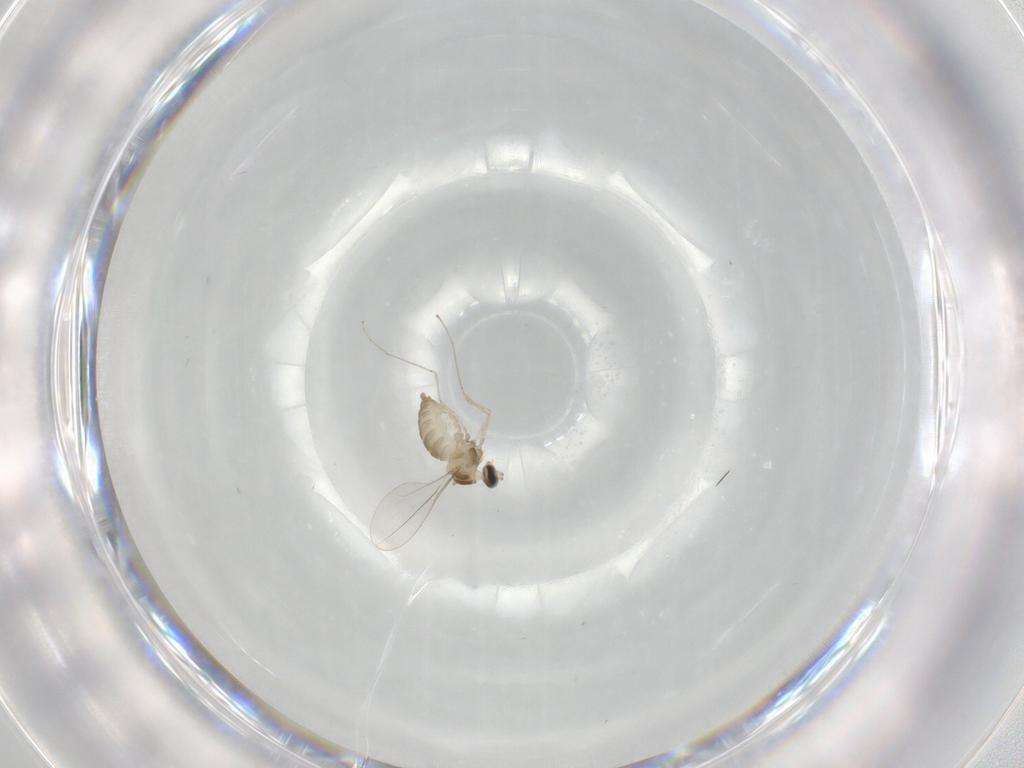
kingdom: Animalia
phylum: Arthropoda
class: Insecta
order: Diptera
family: Cecidomyiidae
